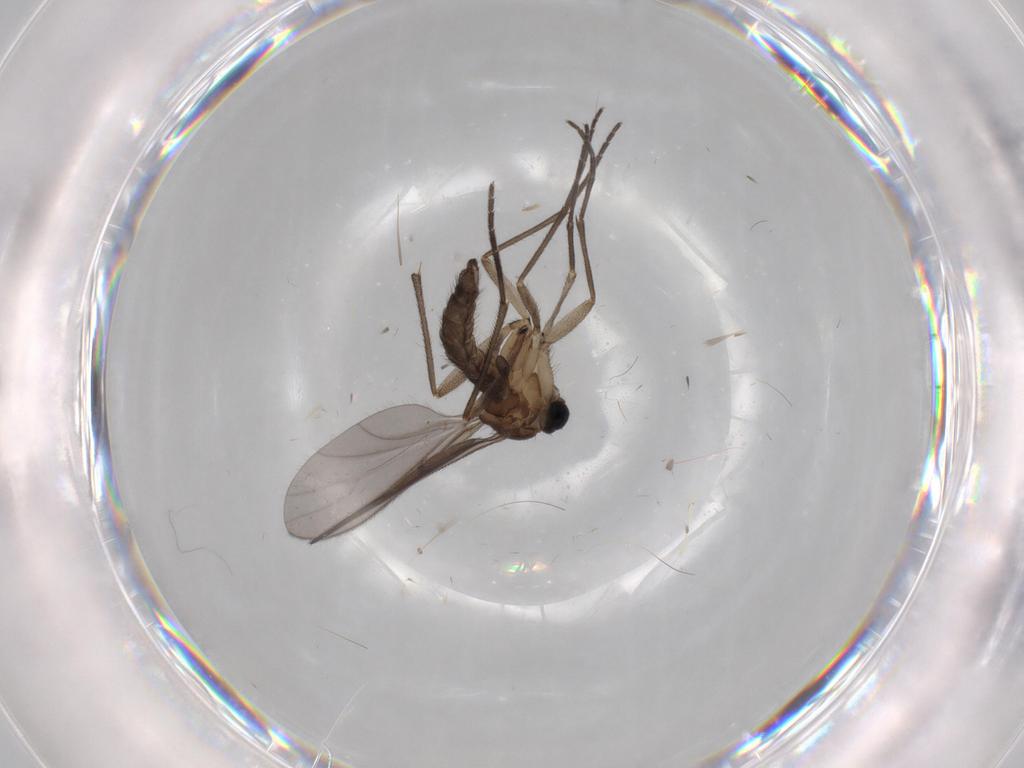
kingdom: Animalia
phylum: Arthropoda
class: Insecta
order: Diptera
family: Sciaridae
